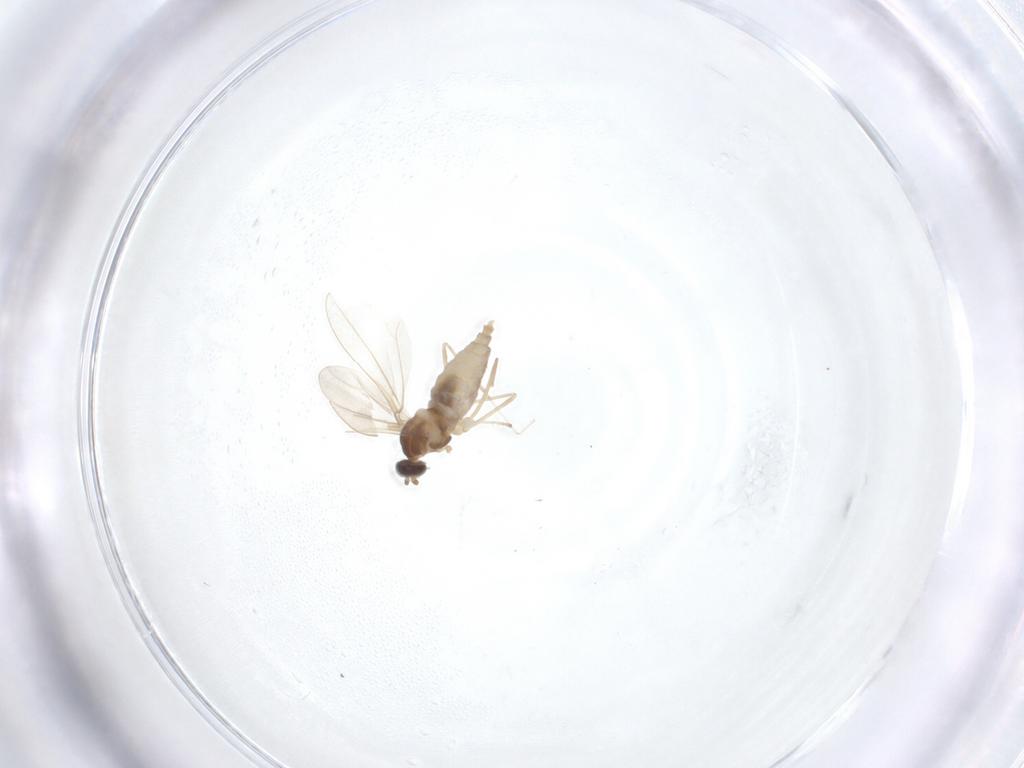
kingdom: Animalia
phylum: Arthropoda
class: Insecta
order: Diptera
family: Cecidomyiidae
